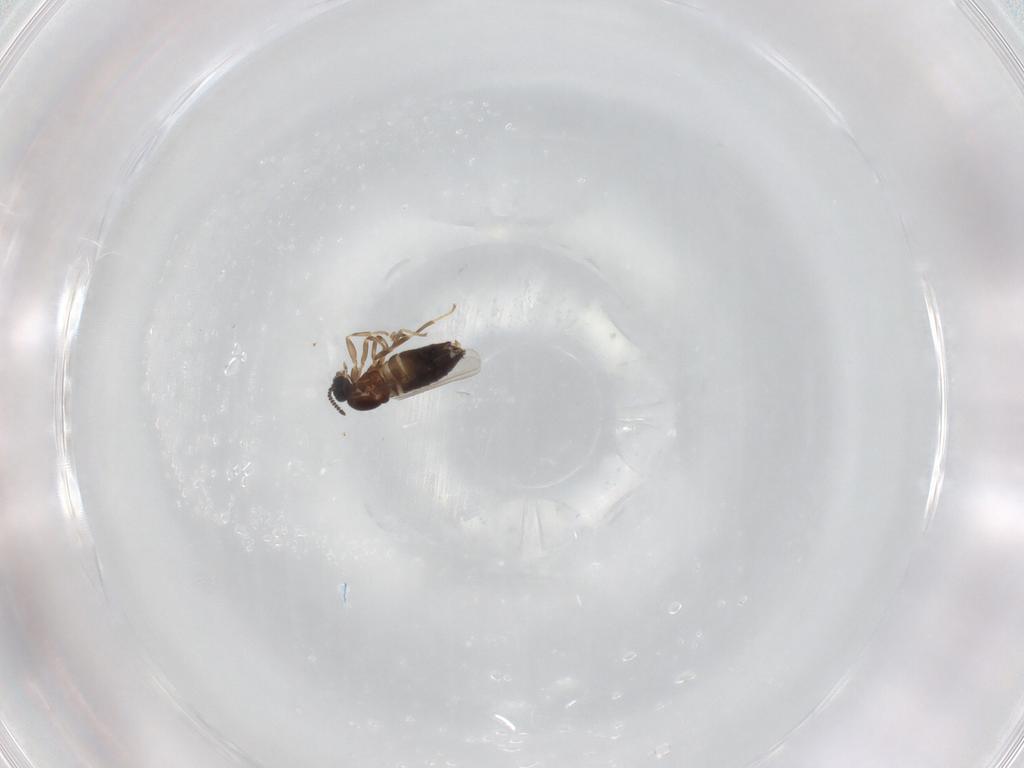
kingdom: Animalia
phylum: Arthropoda
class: Insecta
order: Diptera
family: Scatopsidae
